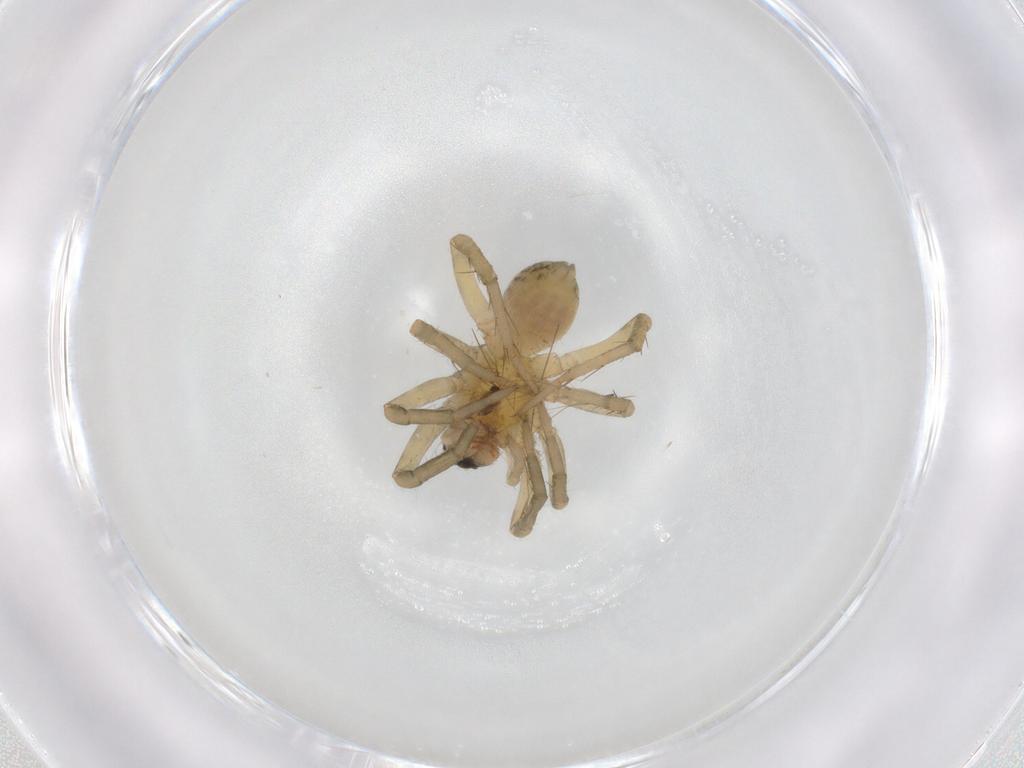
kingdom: Animalia
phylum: Arthropoda
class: Arachnida
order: Araneae
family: Lycosidae
